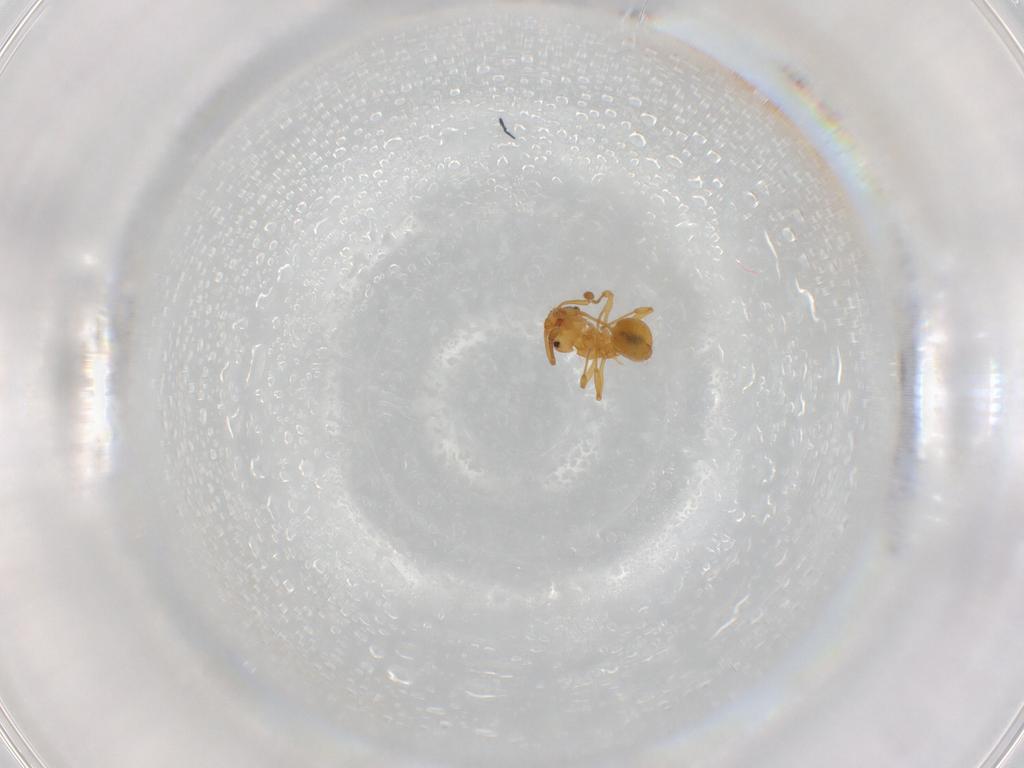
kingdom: Animalia
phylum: Arthropoda
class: Insecta
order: Hymenoptera
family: Formicidae
